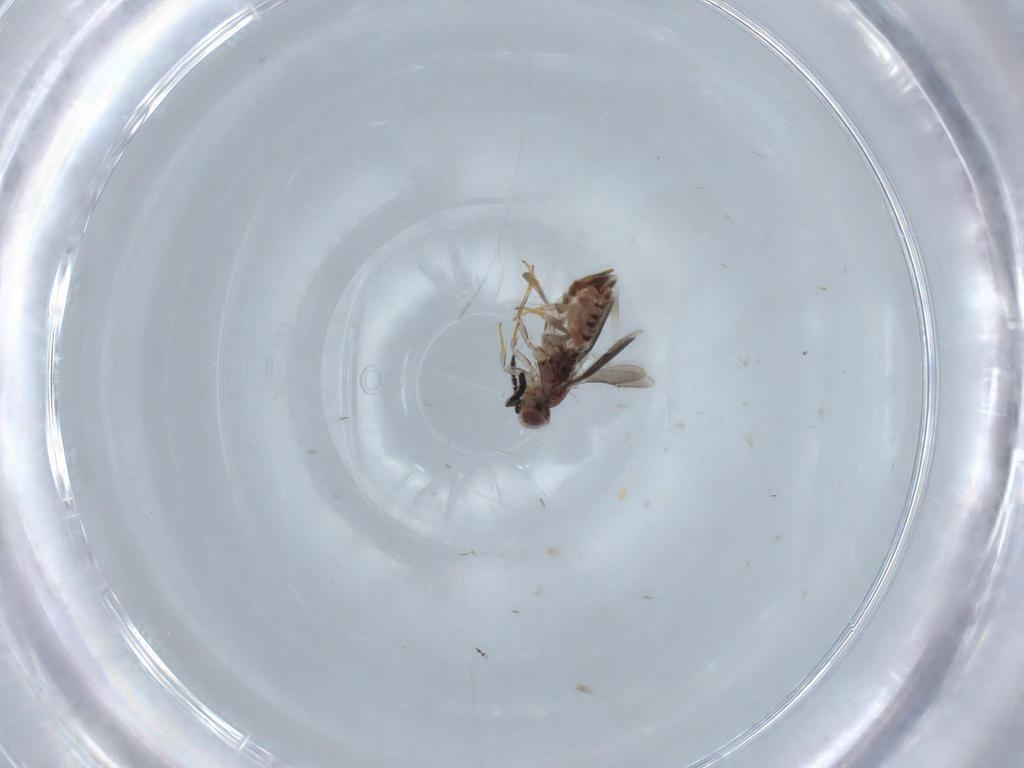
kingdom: Animalia
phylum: Arthropoda
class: Insecta
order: Hymenoptera
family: Aphelinidae
